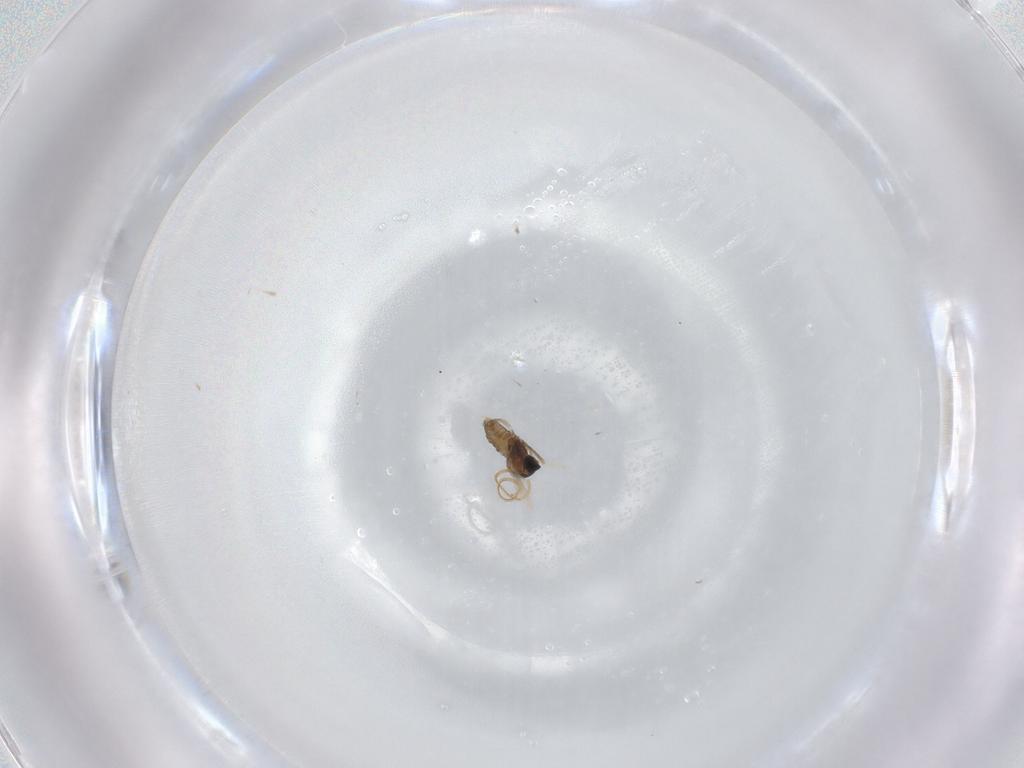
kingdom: Animalia
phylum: Arthropoda
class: Insecta
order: Diptera
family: Cecidomyiidae
